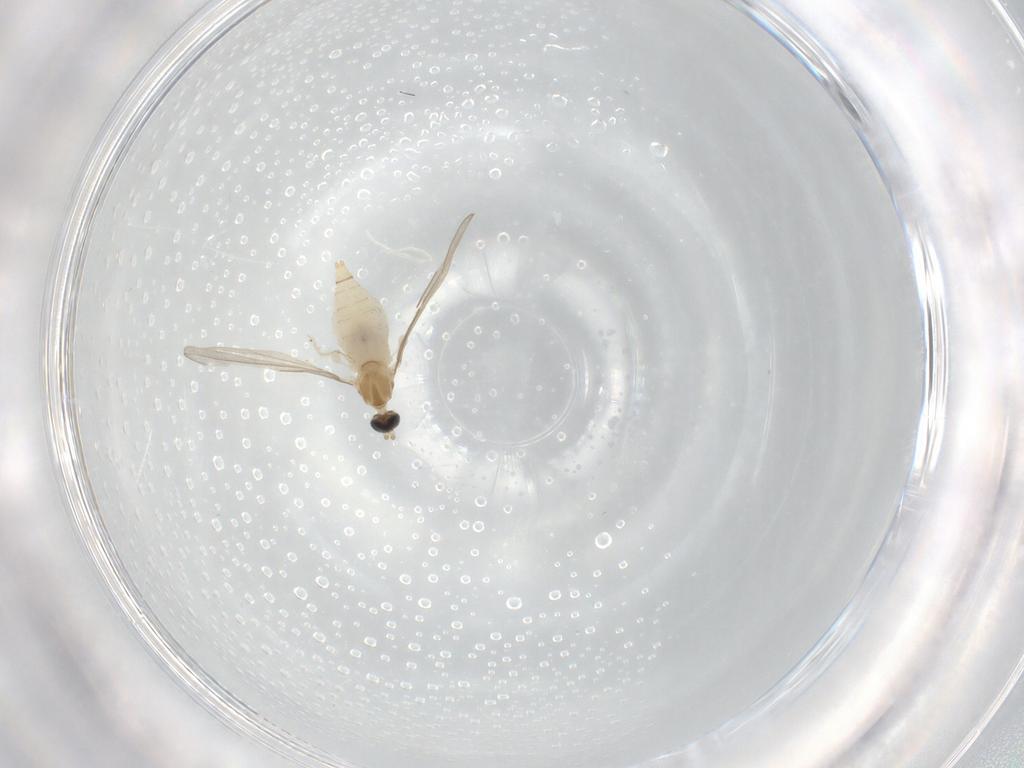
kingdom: Animalia
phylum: Arthropoda
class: Insecta
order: Diptera
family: Cecidomyiidae
